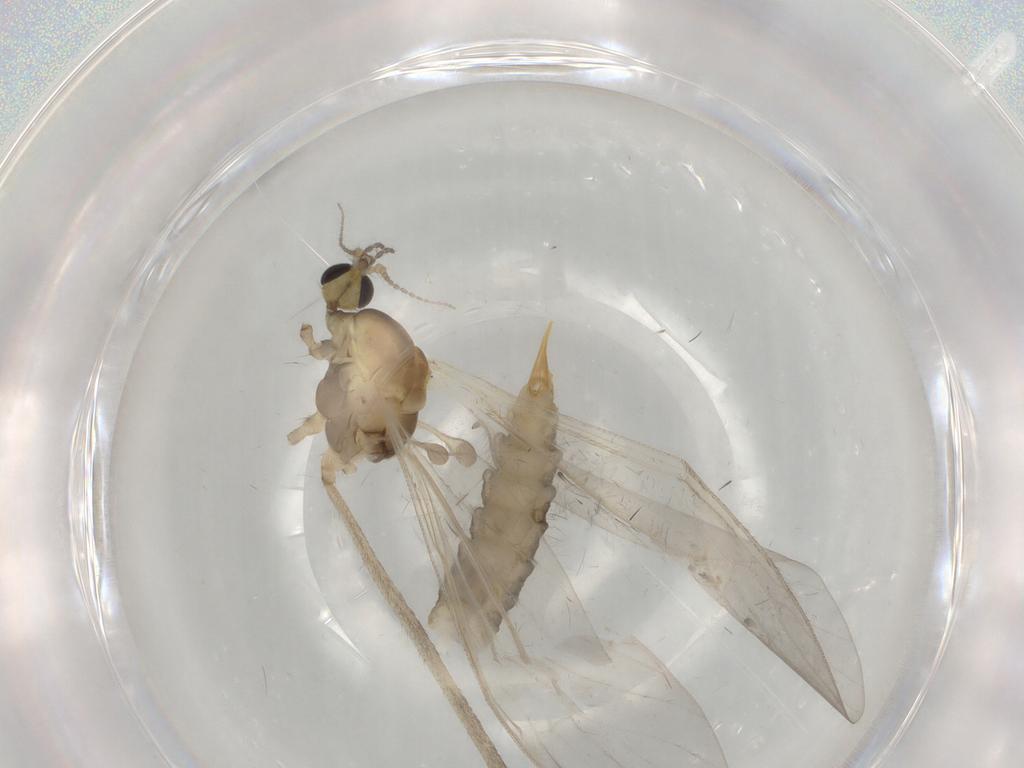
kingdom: Animalia
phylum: Arthropoda
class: Insecta
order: Diptera
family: Psychodidae
